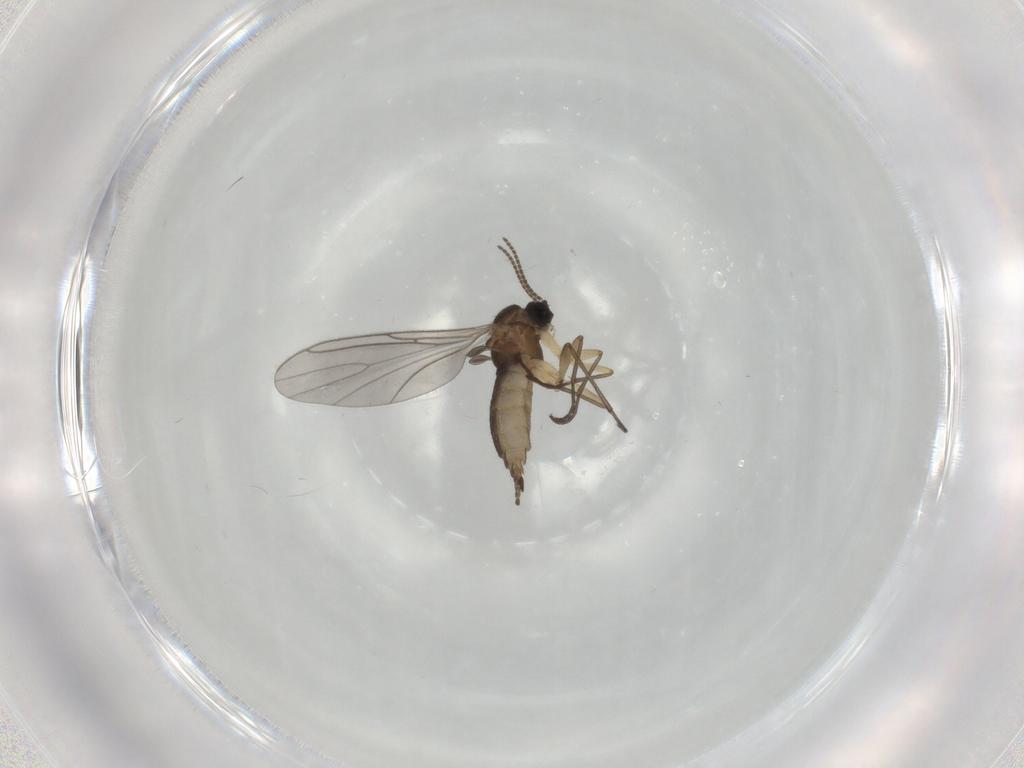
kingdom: Animalia
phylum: Arthropoda
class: Insecta
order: Diptera
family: Sciaridae
